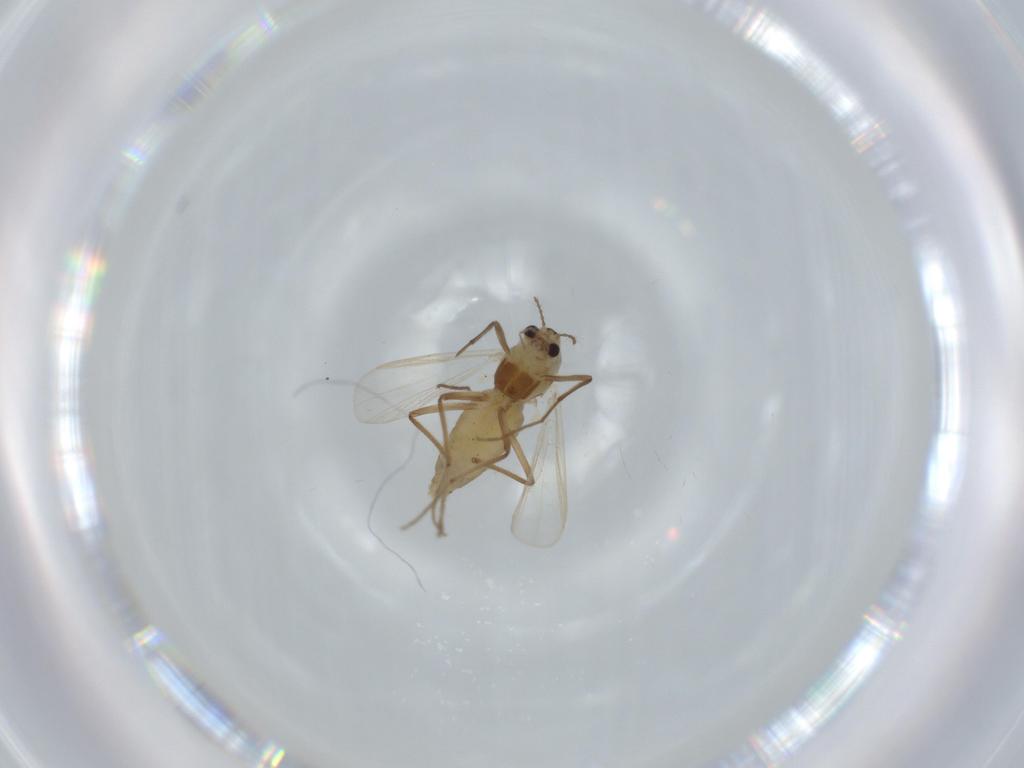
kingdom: Animalia
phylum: Arthropoda
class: Insecta
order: Diptera
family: Chironomidae
